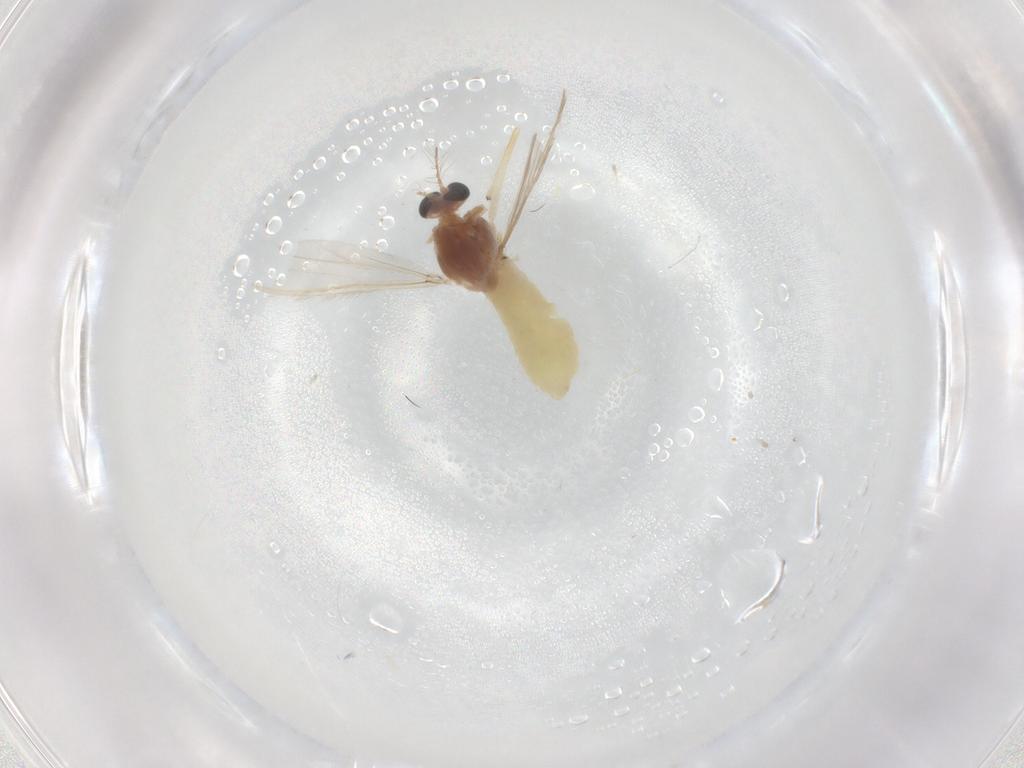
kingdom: Animalia
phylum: Arthropoda
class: Insecta
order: Diptera
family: Chironomidae
